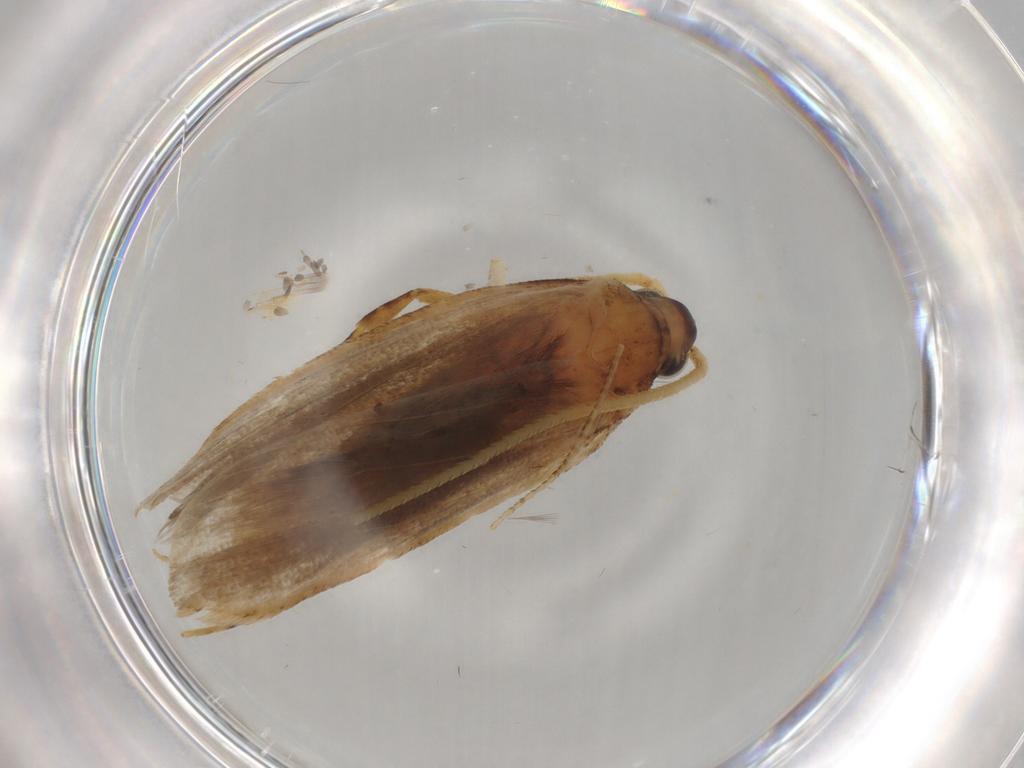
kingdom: Animalia
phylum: Arthropoda
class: Insecta
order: Lepidoptera
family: Lecithoceridae
